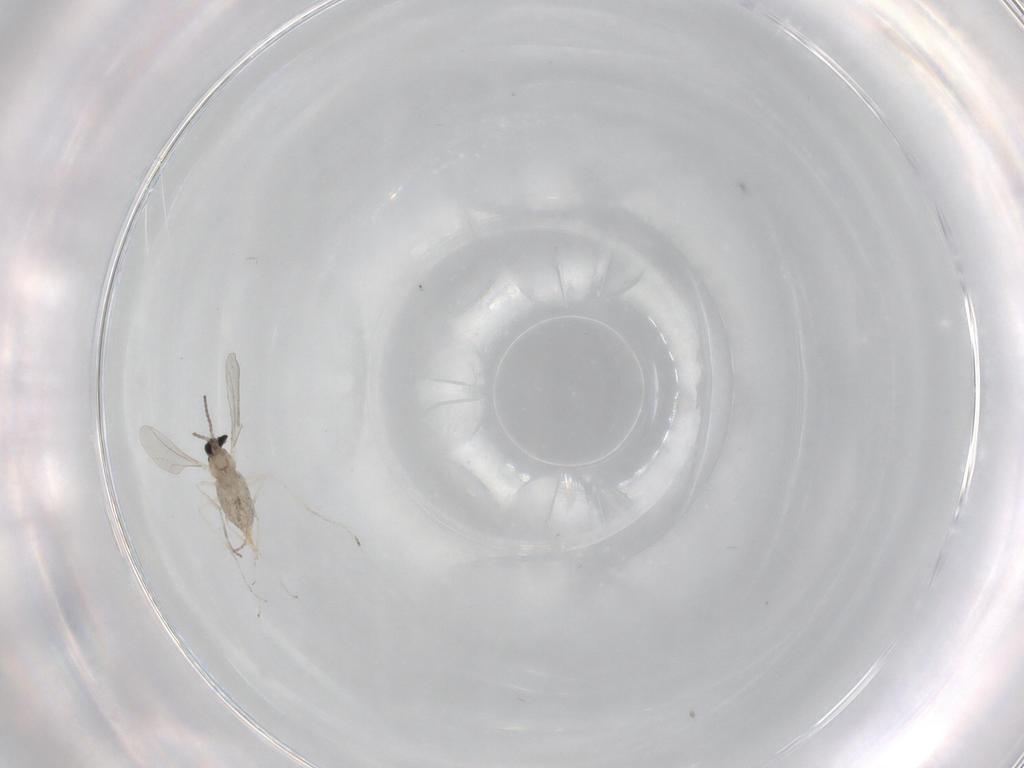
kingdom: Animalia
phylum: Arthropoda
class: Insecta
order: Diptera
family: Cecidomyiidae
